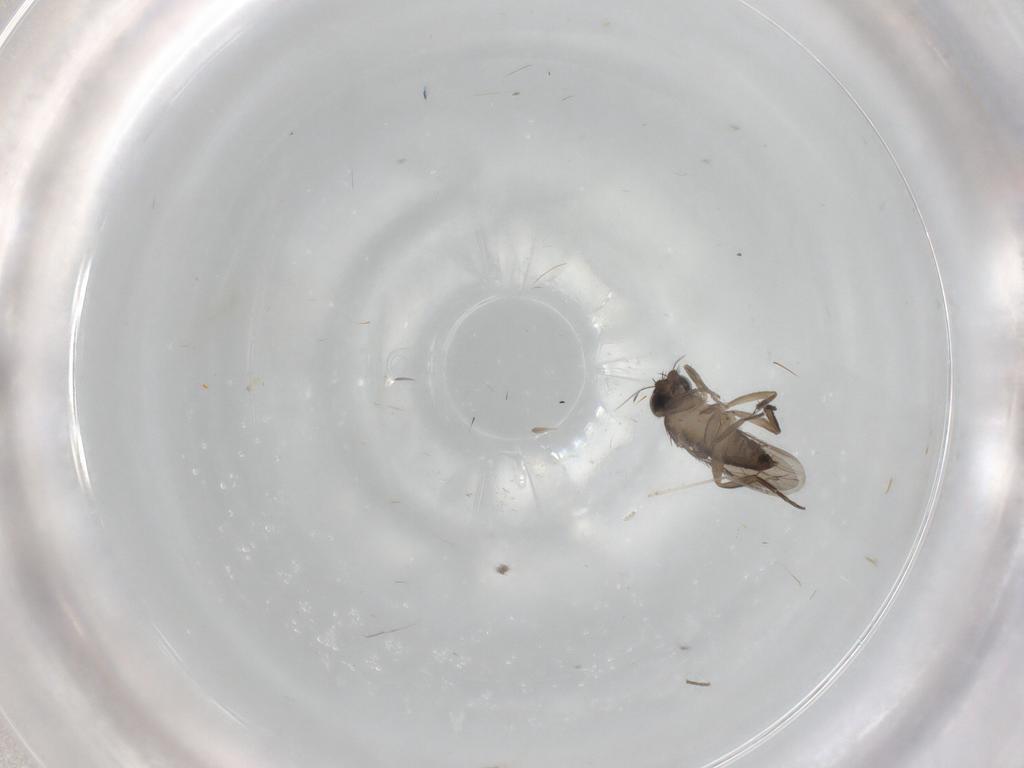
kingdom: Animalia
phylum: Arthropoda
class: Insecta
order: Diptera
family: Phoridae
